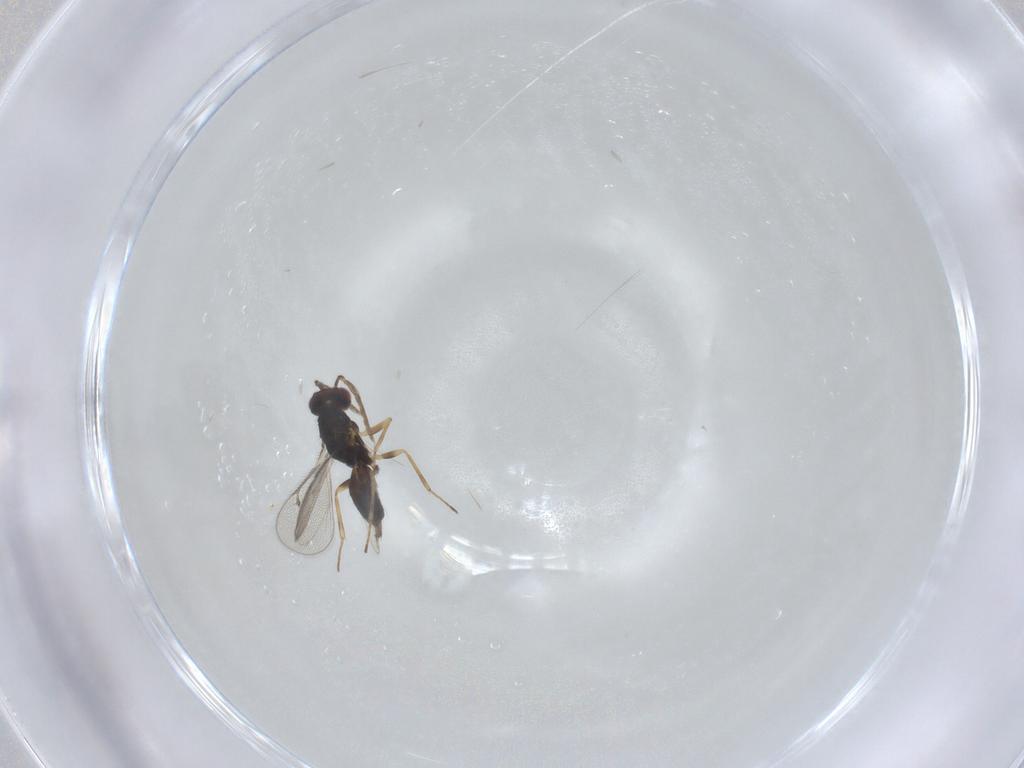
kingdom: Animalia
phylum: Arthropoda
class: Insecta
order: Hymenoptera
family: Eulophidae
